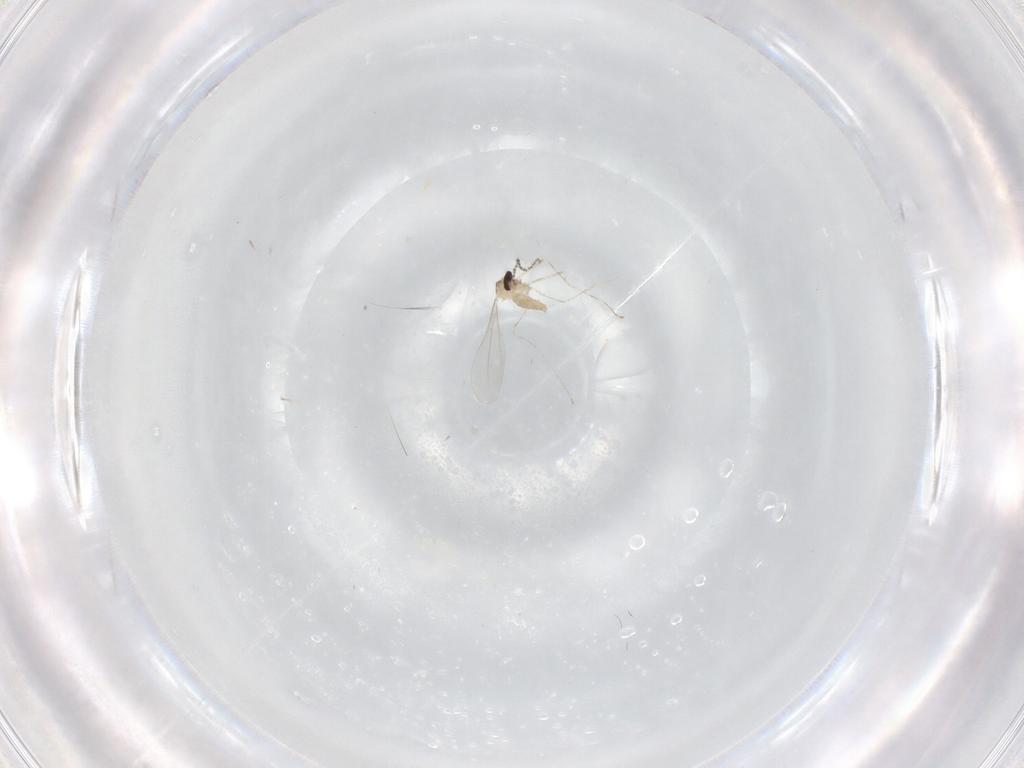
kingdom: Animalia
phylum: Arthropoda
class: Insecta
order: Diptera
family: Cecidomyiidae
